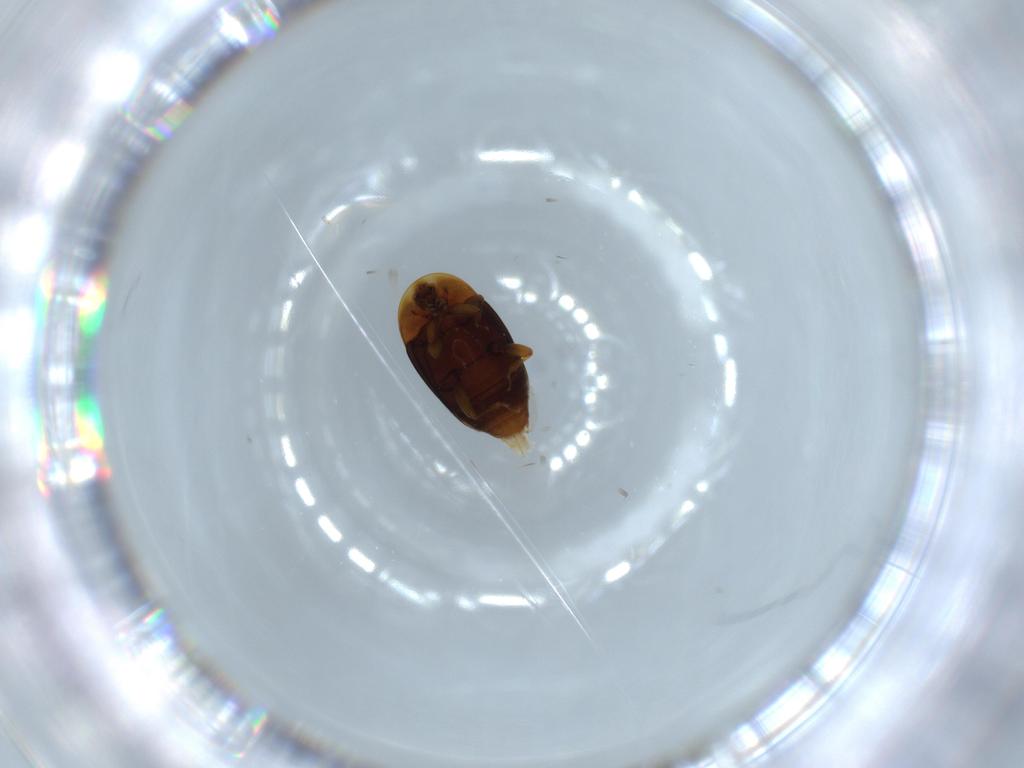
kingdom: Animalia
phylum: Arthropoda
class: Insecta
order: Coleoptera
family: Corylophidae
